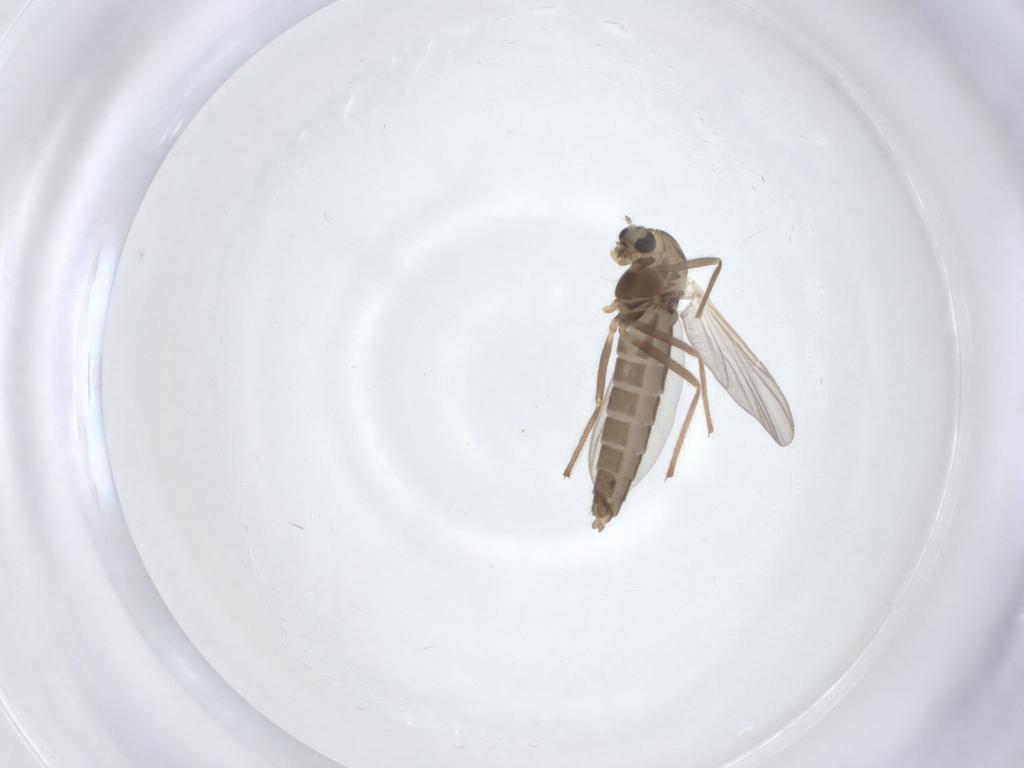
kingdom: Animalia
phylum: Arthropoda
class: Insecta
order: Diptera
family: Chironomidae
